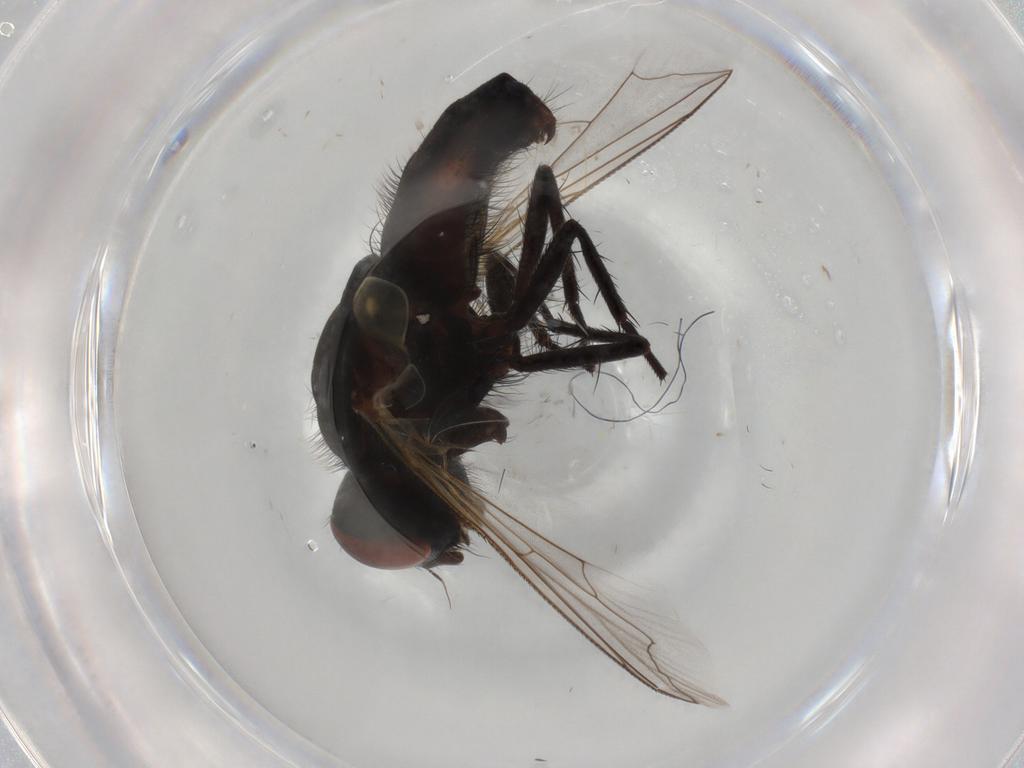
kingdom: Animalia
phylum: Arthropoda
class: Insecta
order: Diptera
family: Sarcophagidae
